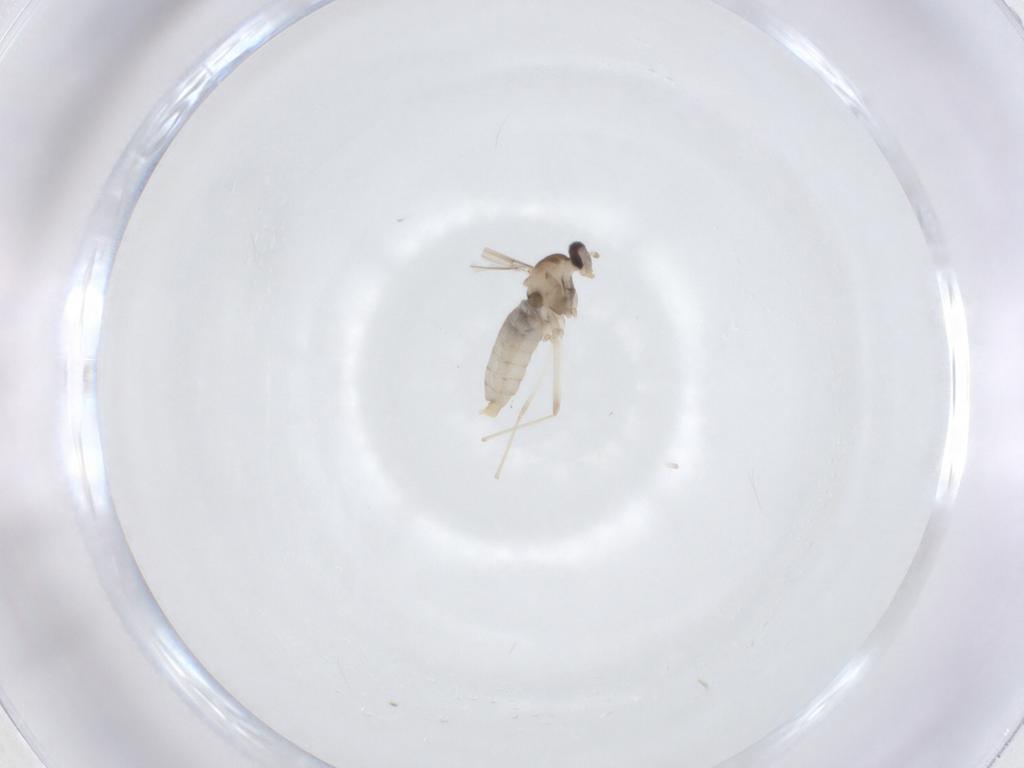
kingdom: Animalia
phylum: Arthropoda
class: Insecta
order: Diptera
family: Cecidomyiidae
